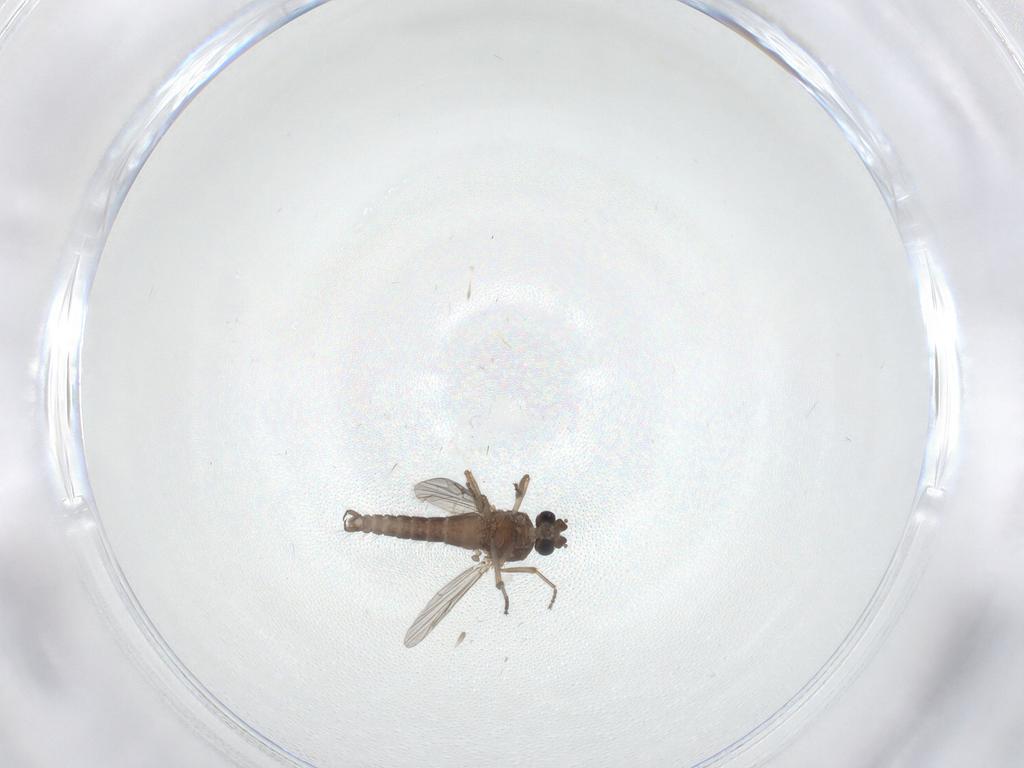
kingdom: Animalia
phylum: Arthropoda
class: Insecta
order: Diptera
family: Ceratopogonidae
